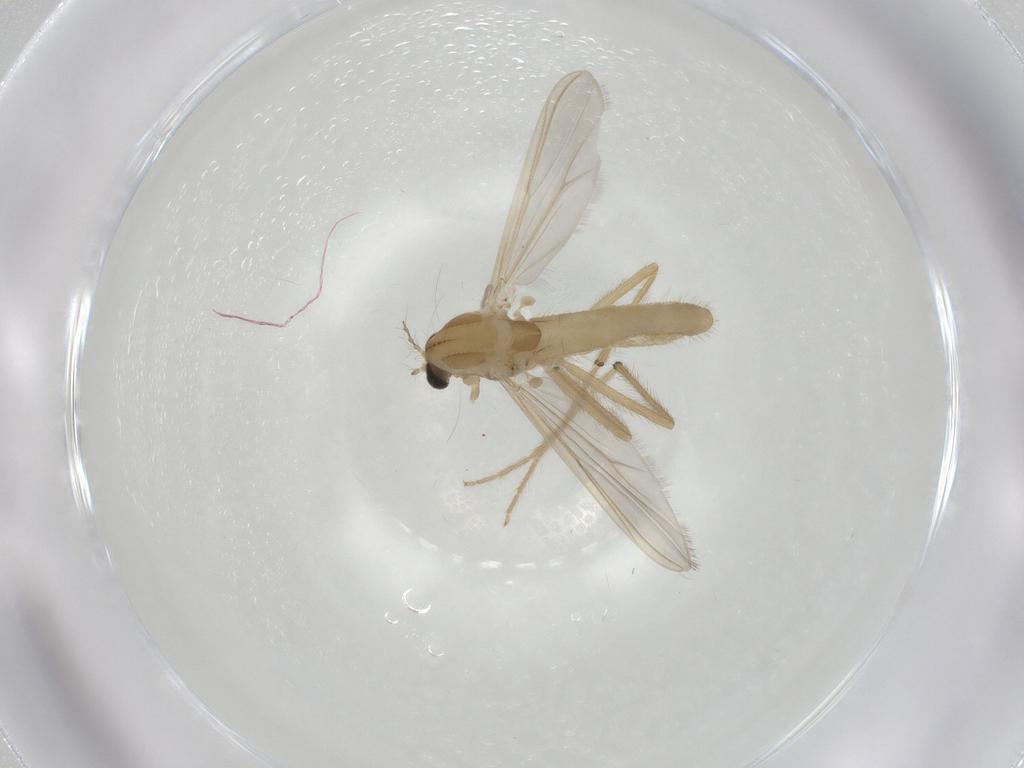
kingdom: Animalia
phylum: Arthropoda
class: Insecta
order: Diptera
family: Chironomidae
